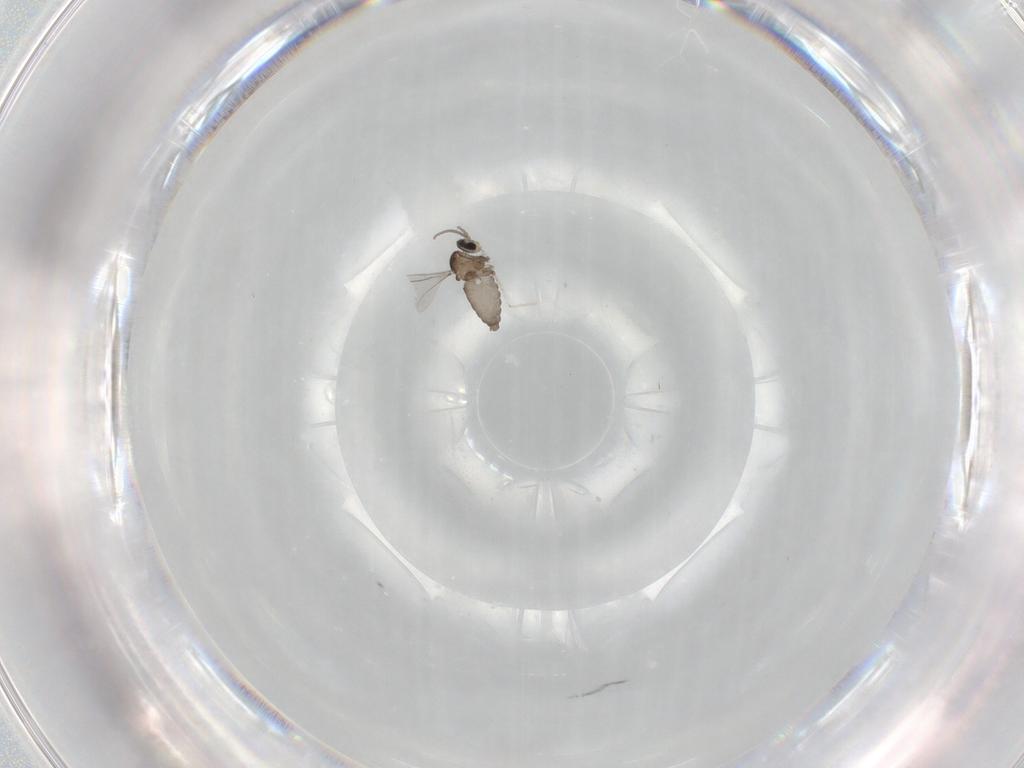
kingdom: Animalia
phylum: Arthropoda
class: Insecta
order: Diptera
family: Cecidomyiidae
